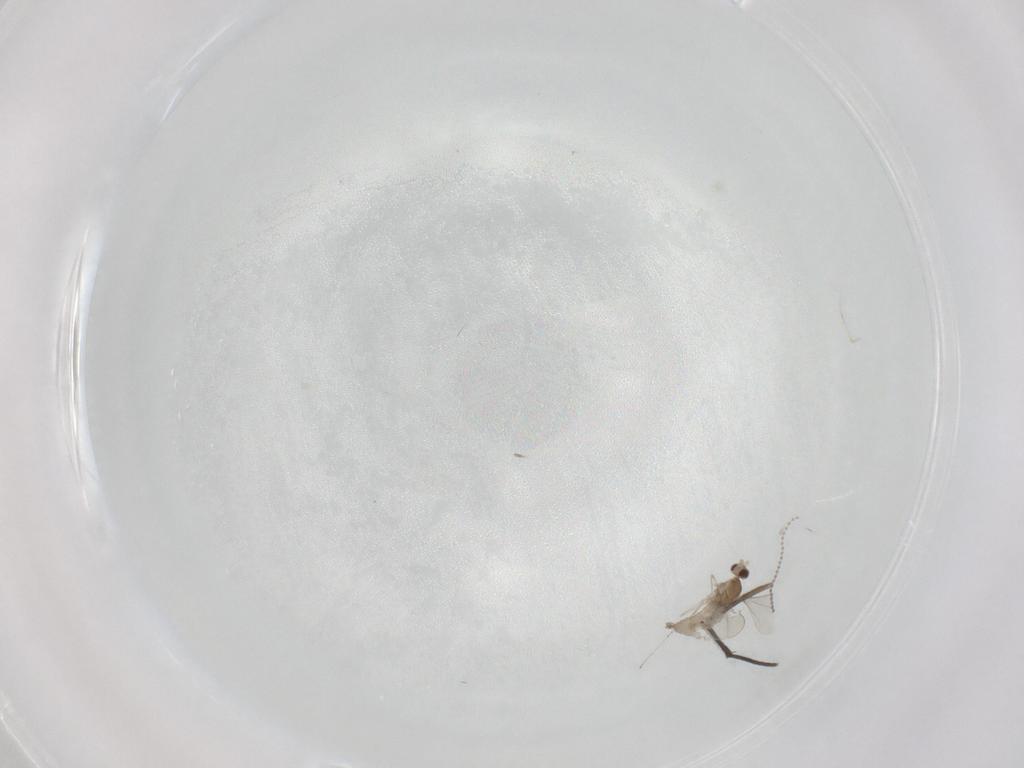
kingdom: Animalia
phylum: Arthropoda
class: Insecta
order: Diptera
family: Cecidomyiidae
